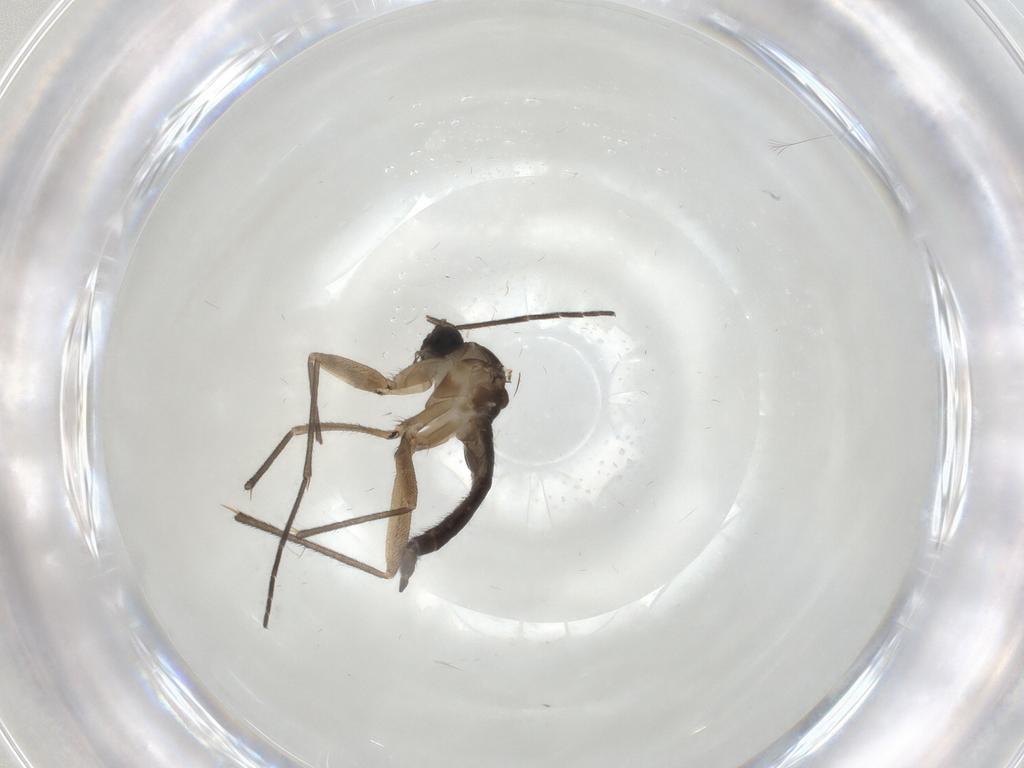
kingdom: Animalia
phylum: Arthropoda
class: Insecta
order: Diptera
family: Sciaridae
